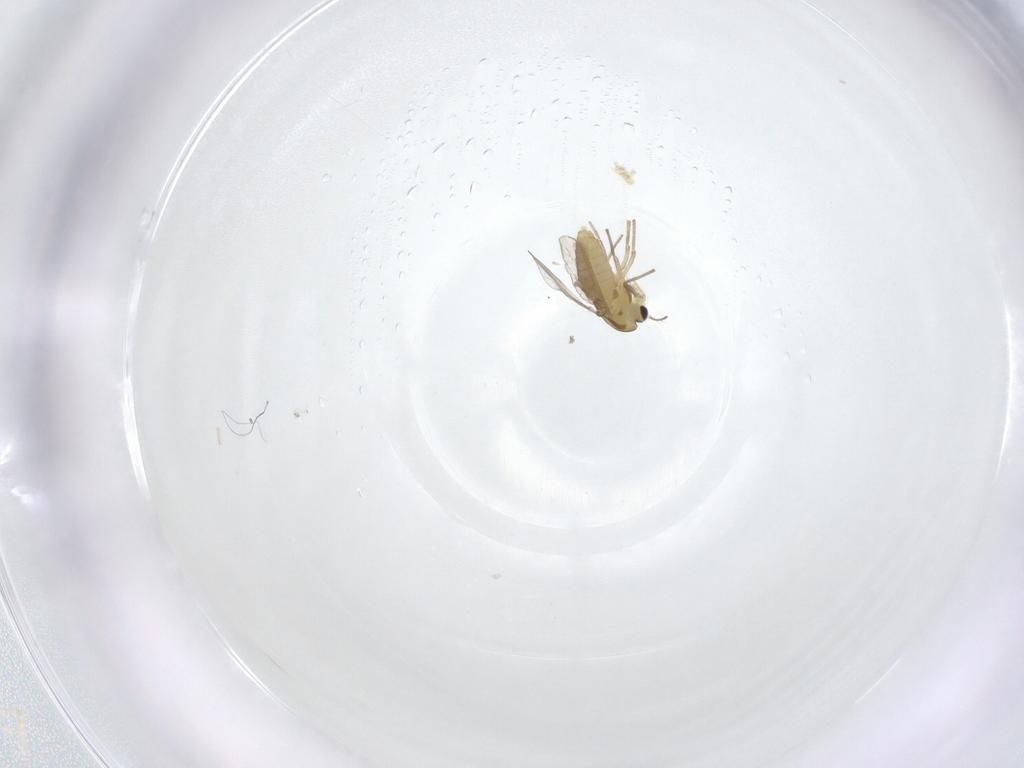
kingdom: Animalia
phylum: Arthropoda
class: Insecta
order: Diptera
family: Chironomidae
